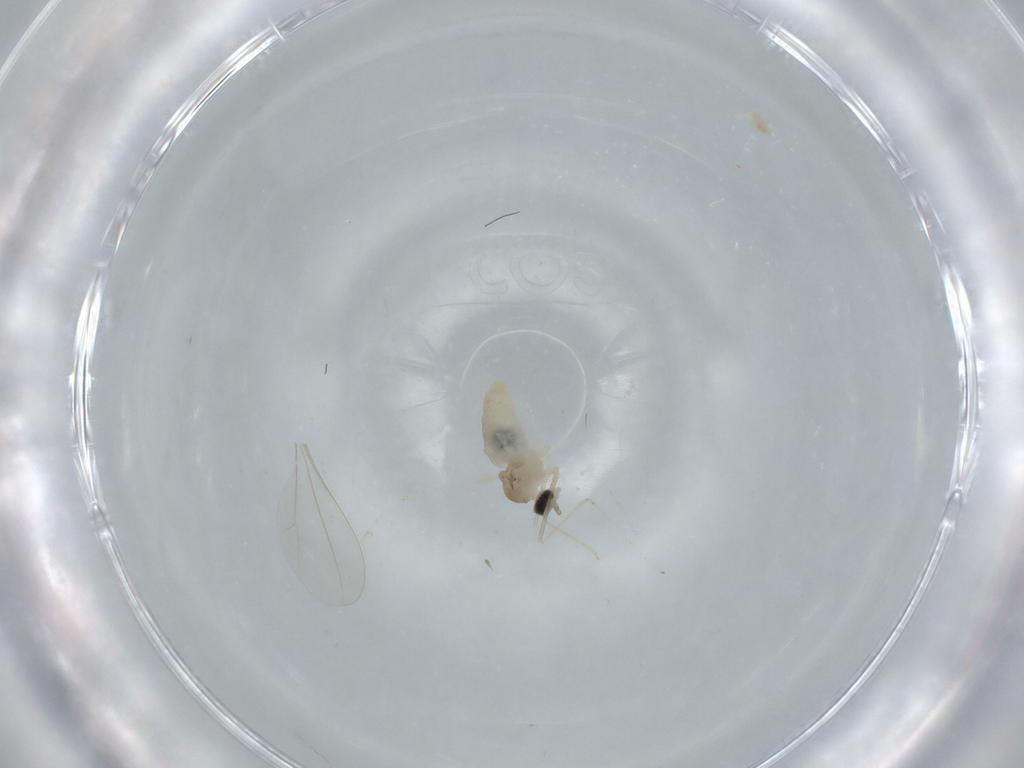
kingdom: Animalia
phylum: Arthropoda
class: Insecta
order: Diptera
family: Cecidomyiidae
